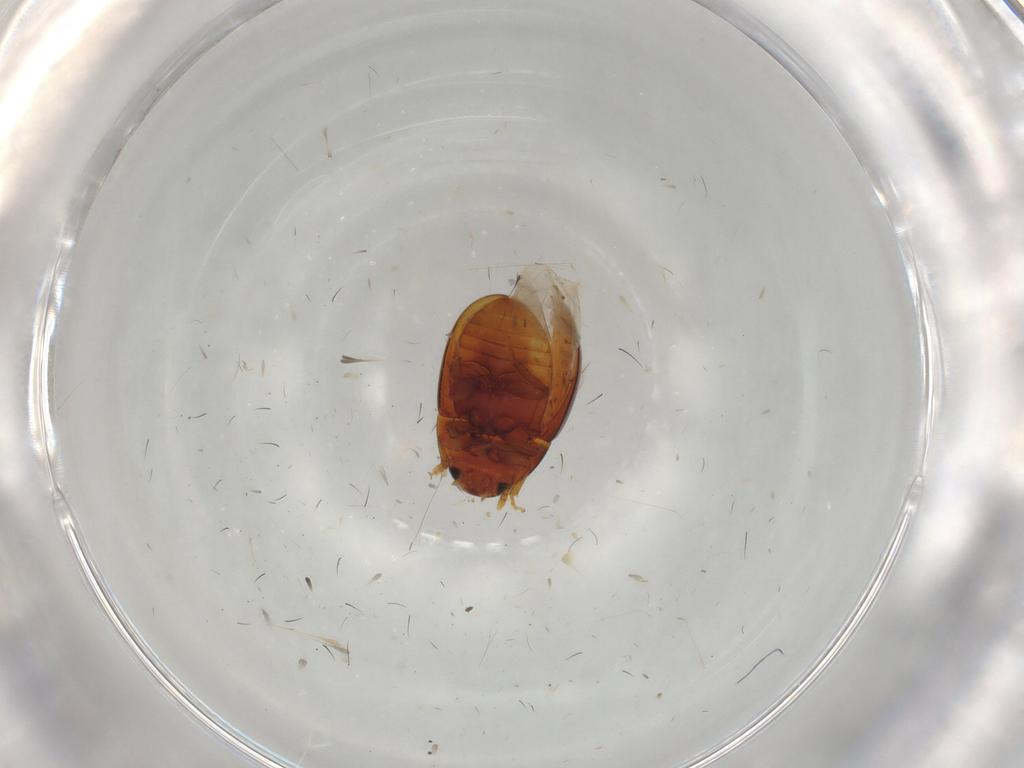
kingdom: Animalia
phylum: Arthropoda
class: Insecta
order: Coleoptera
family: Phalacridae
